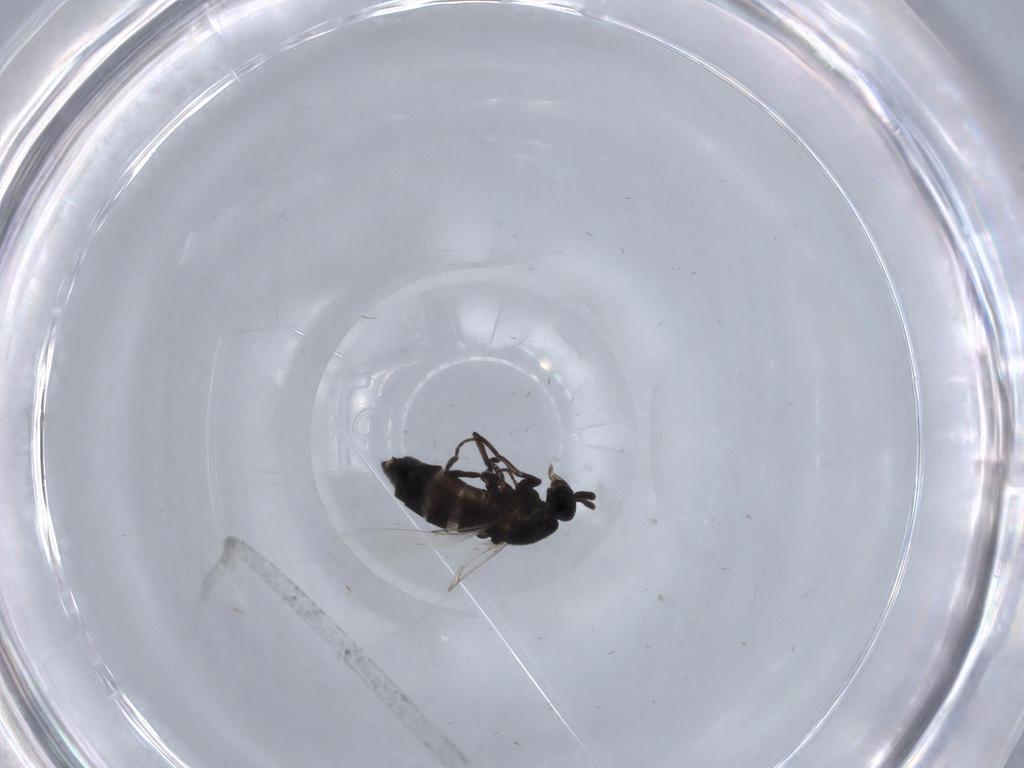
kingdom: Animalia
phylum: Arthropoda
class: Insecta
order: Diptera
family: Scatopsidae
